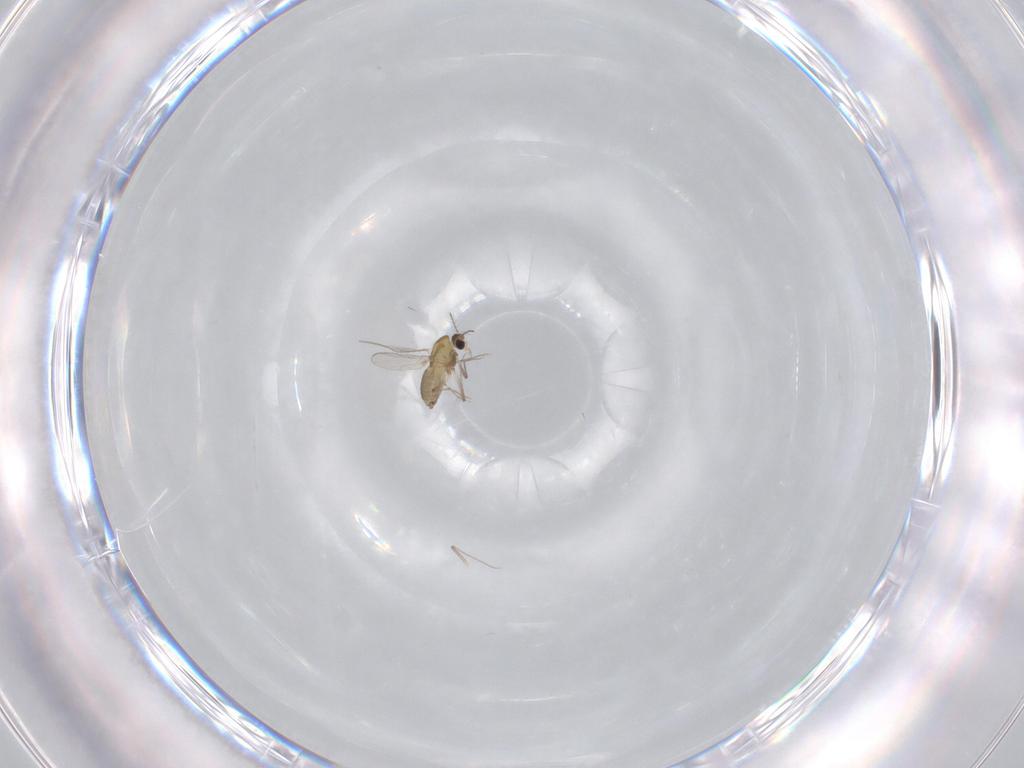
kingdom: Animalia
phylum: Arthropoda
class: Insecta
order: Diptera
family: Chironomidae
